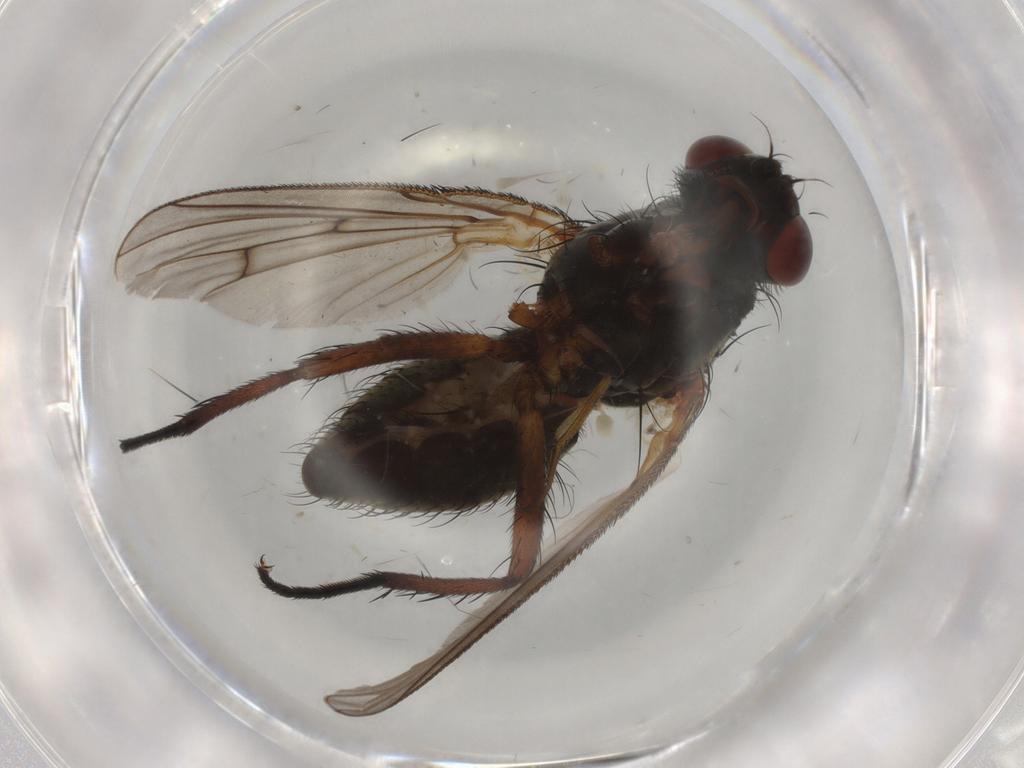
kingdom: Animalia
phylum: Arthropoda
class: Insecta
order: Diptera
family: Anthomyiidae
